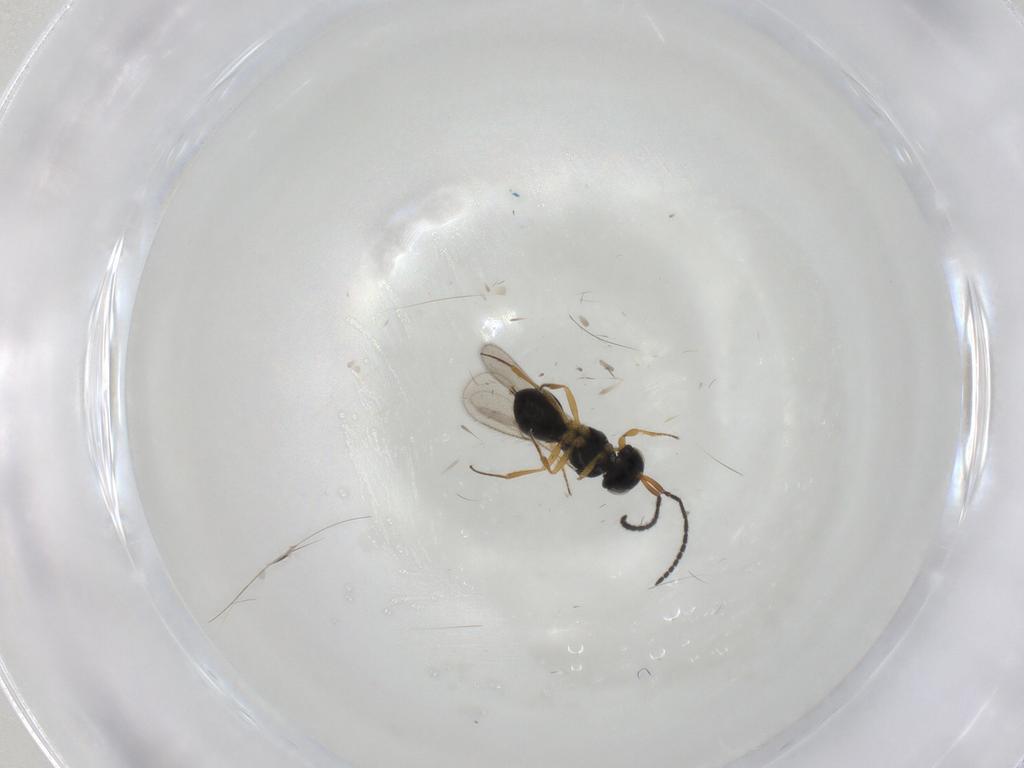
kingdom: Animalia
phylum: Arthropoda
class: Insecta
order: Hymenoptera
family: Scelionidae
